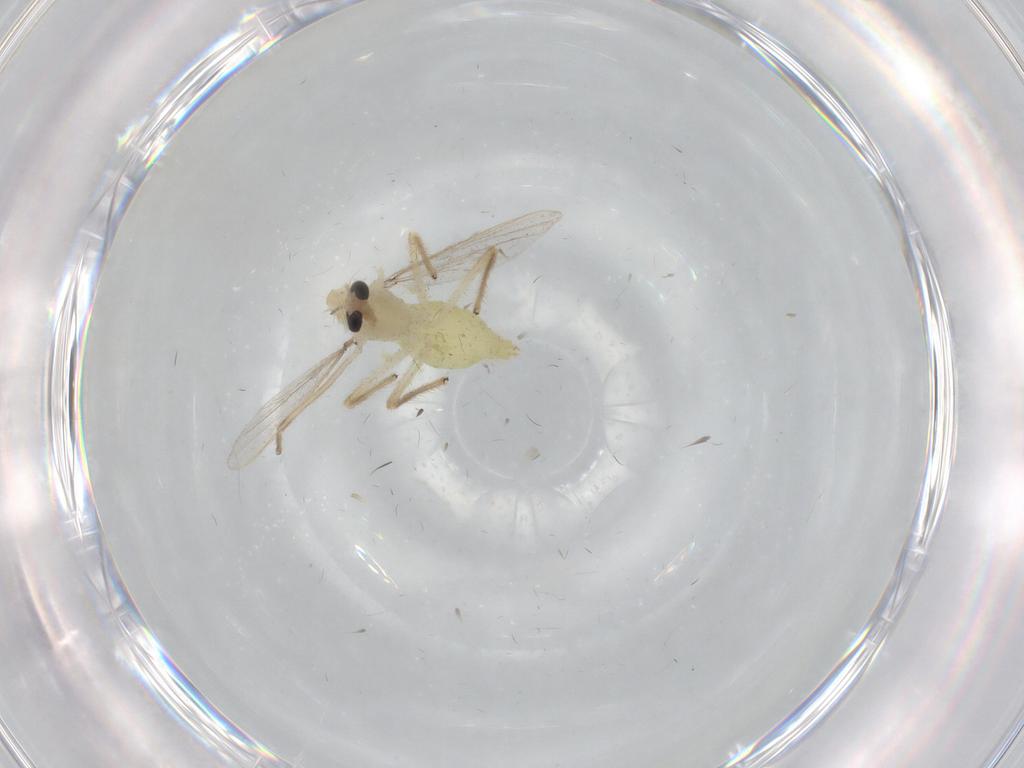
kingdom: Animalia
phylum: Arthropoda
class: Insecta
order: Diptera
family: Chironomidae
